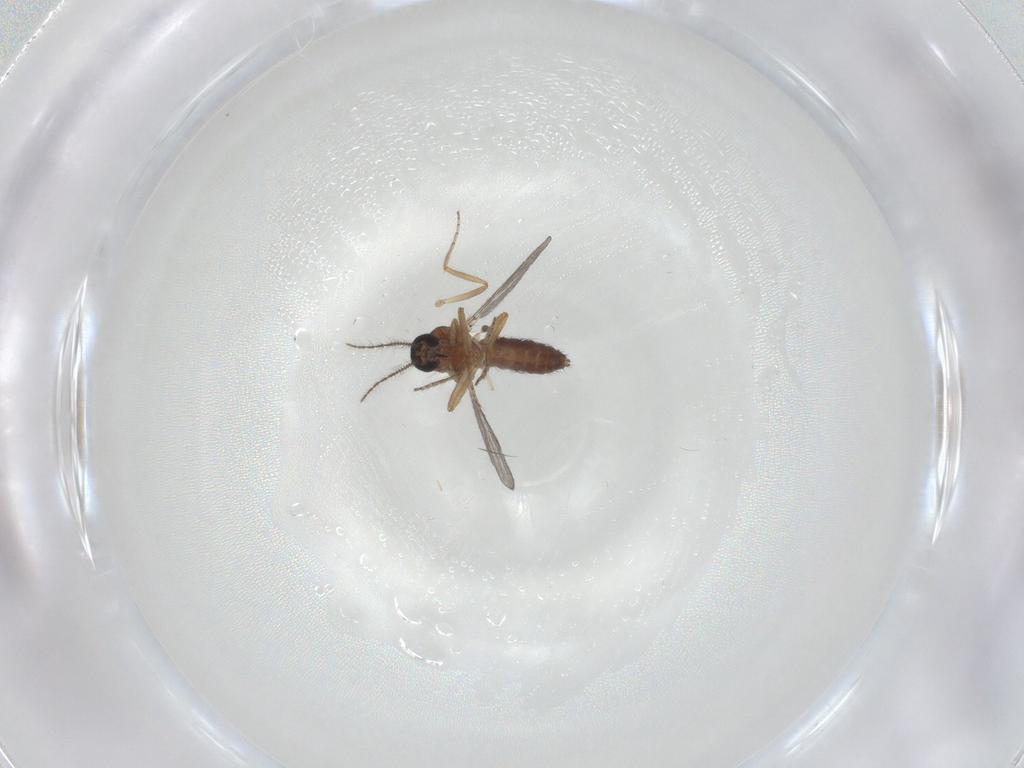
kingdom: Animalia
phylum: Arthropoda
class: Insecta
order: Diptera
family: Ceratopogonidae
